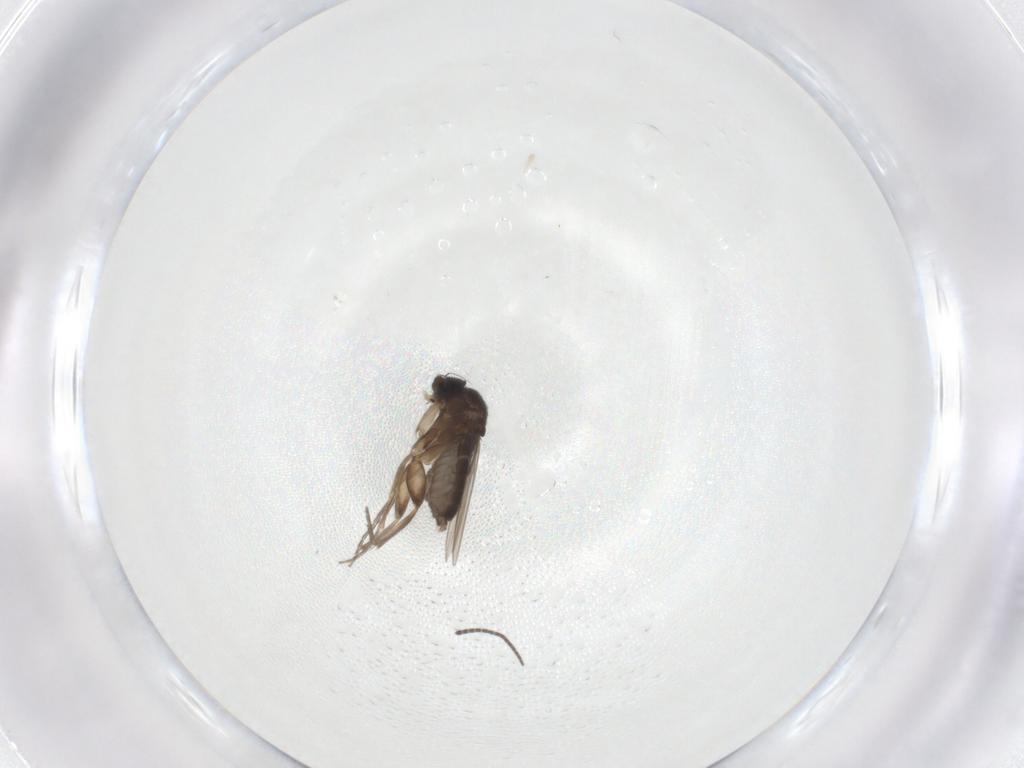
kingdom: Animalia
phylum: Arthropoda
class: Insecta
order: Diptera
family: Sciaridae
